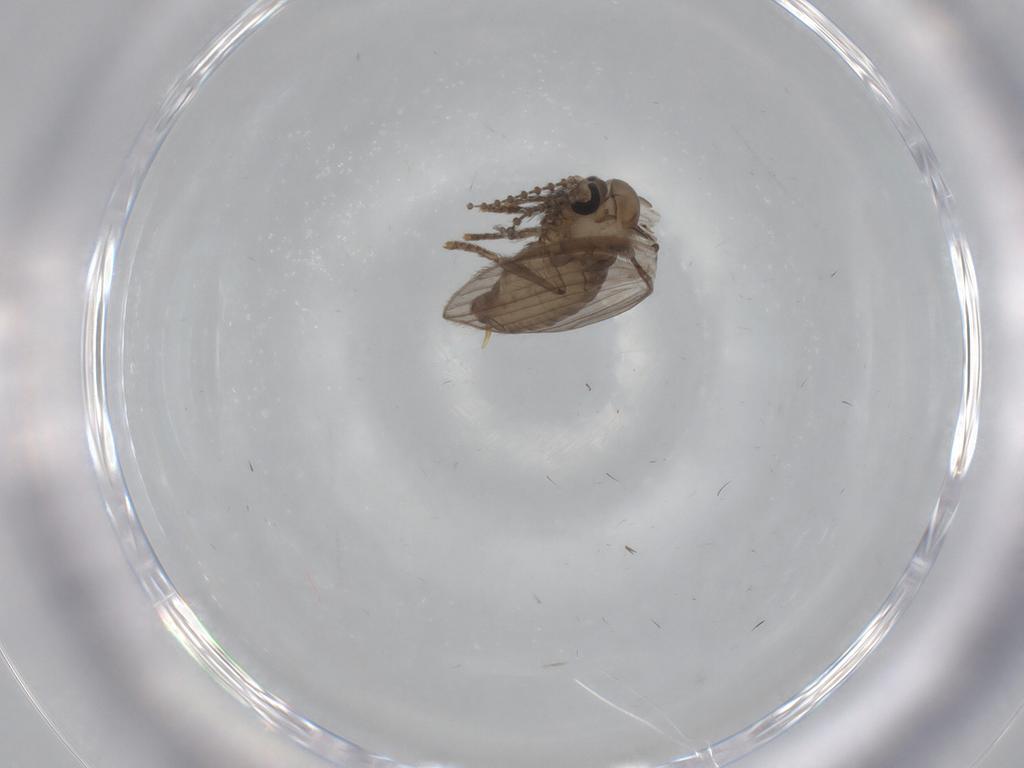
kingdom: Animalia
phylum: Arthropoda
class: Insecta
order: Diptera
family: Psychodidae
